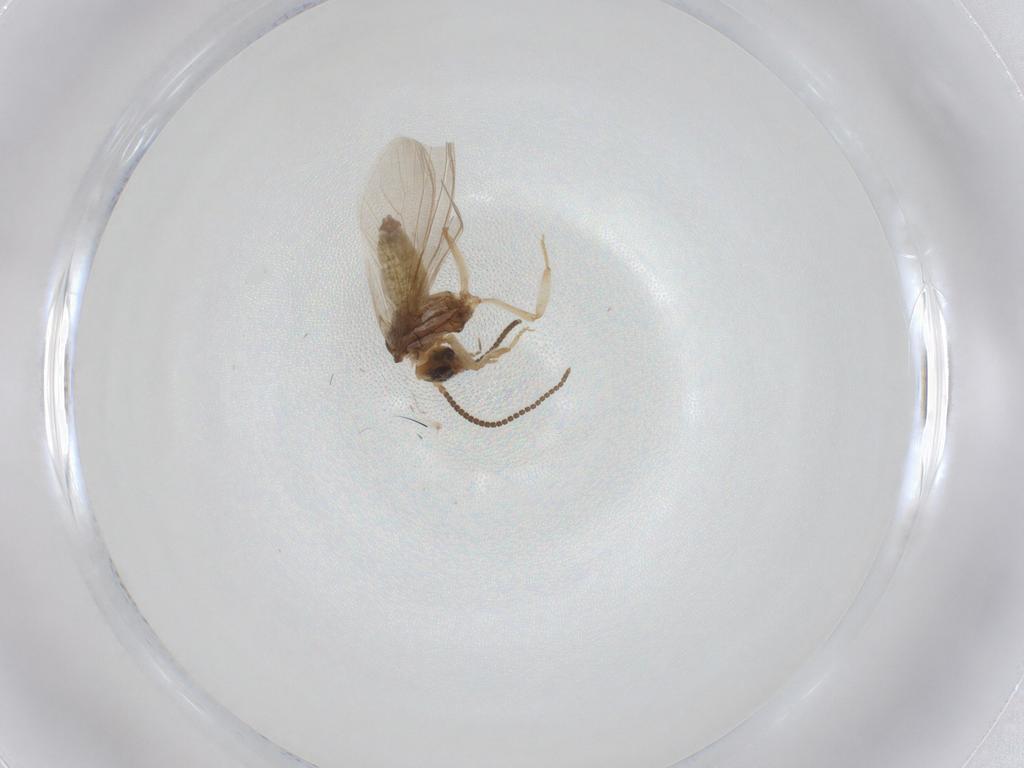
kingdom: Animalia
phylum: Arthropoda
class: Insecta
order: Neuroptera
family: Coniopterygidae
